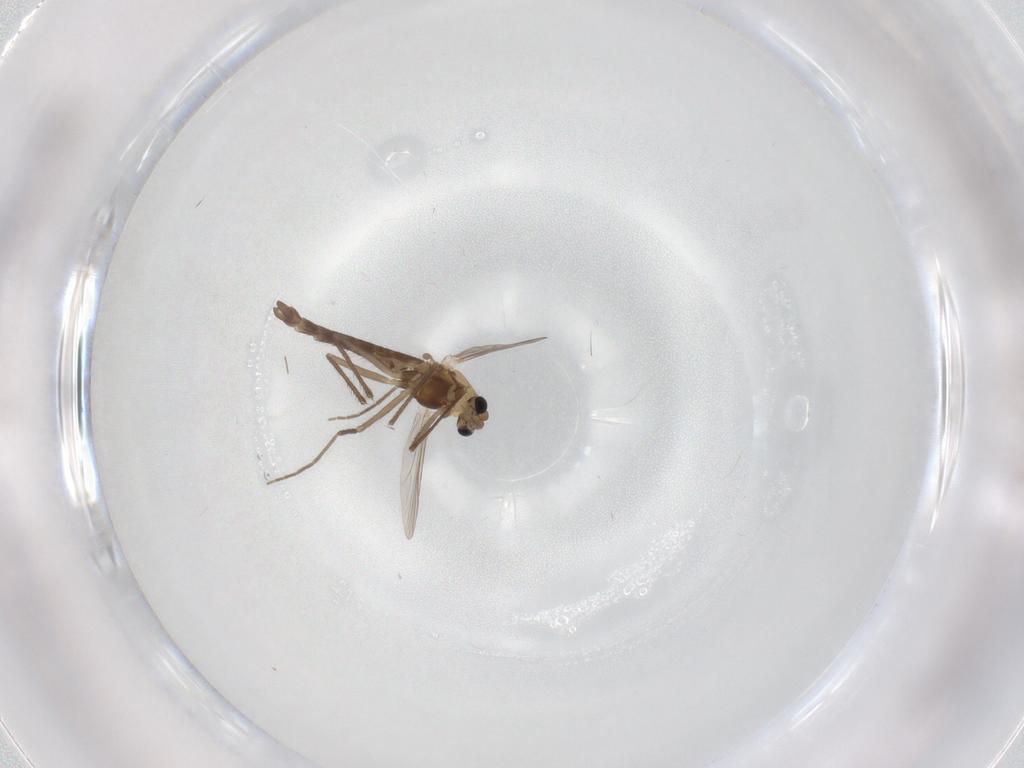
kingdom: Animalia
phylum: Arthropoda
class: Insecta
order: Diptera
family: Chironomidae
